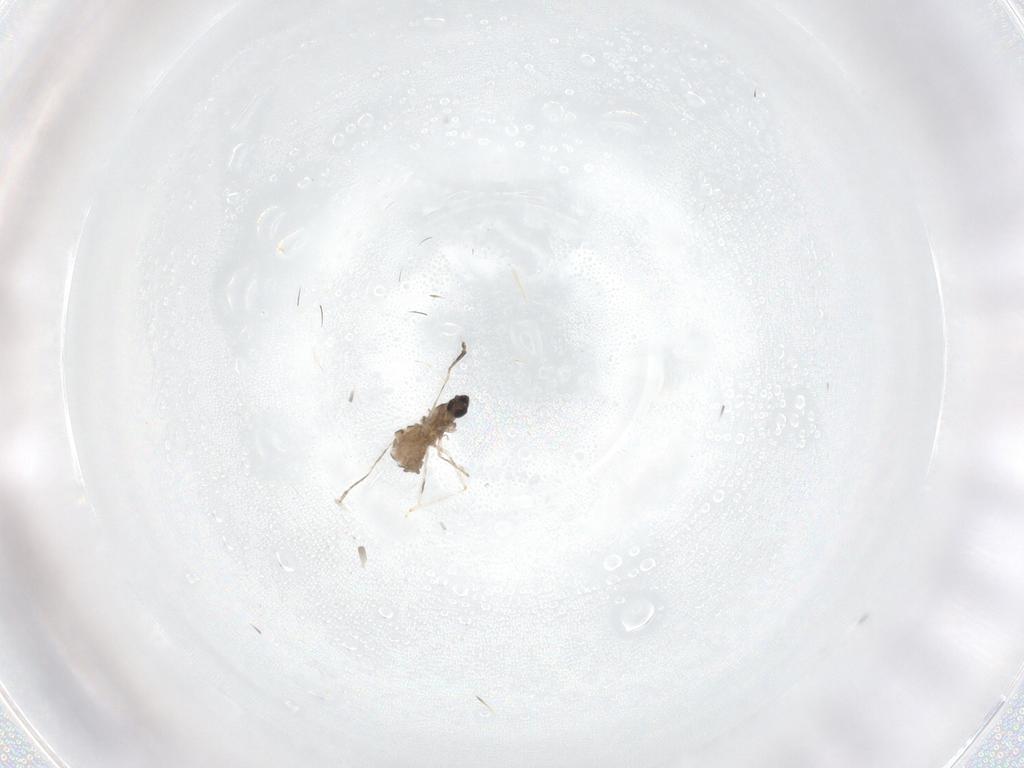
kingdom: Animalia
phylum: Arthropoda
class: Insecta
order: Diptera
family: Cecidomyiidae
